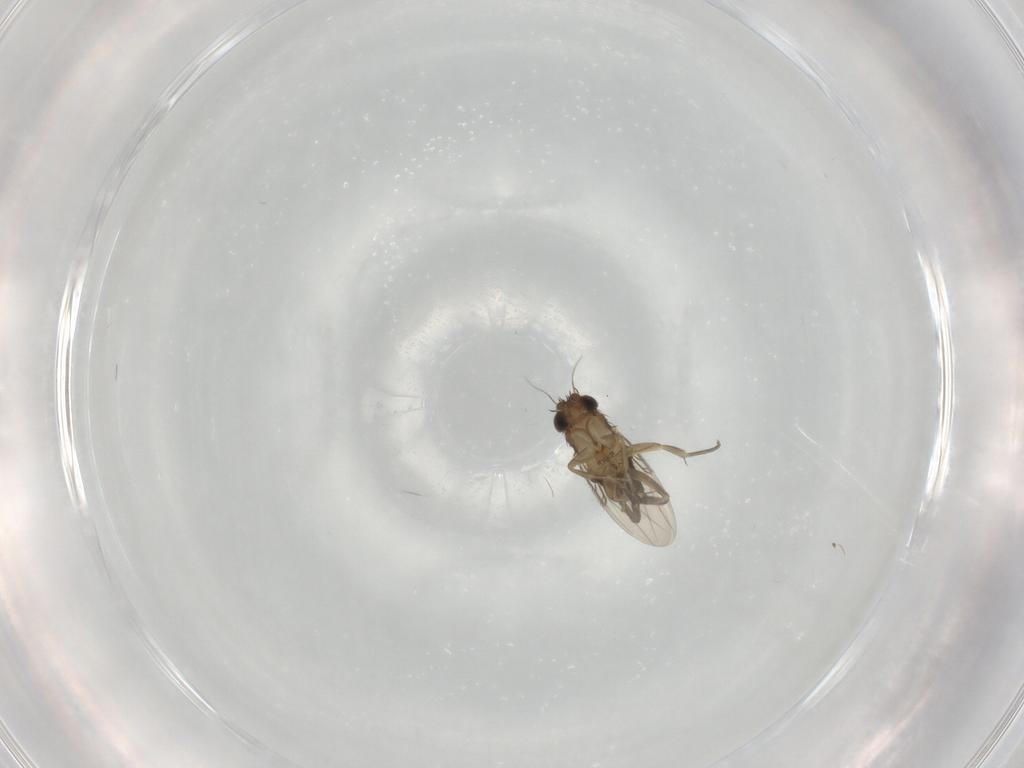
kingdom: Animalia
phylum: Arthropoda
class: Insecta
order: Diptera
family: Phoridae
